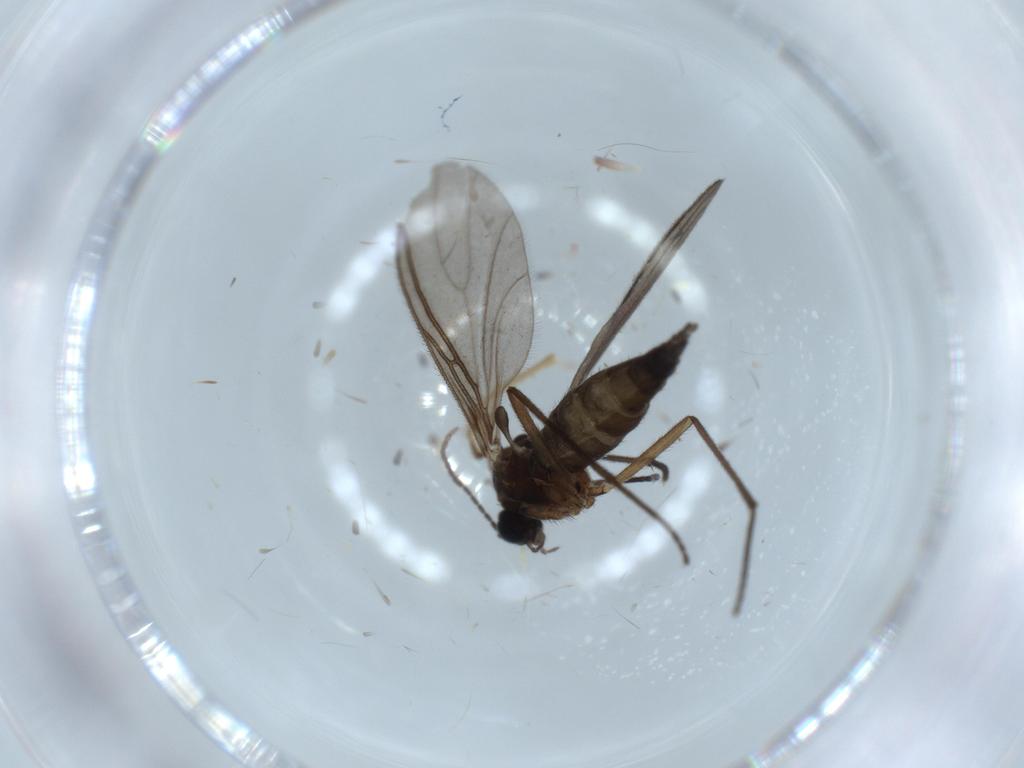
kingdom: Animalia
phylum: Arthropoda
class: Insecta
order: Diptera
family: Sciaridae
